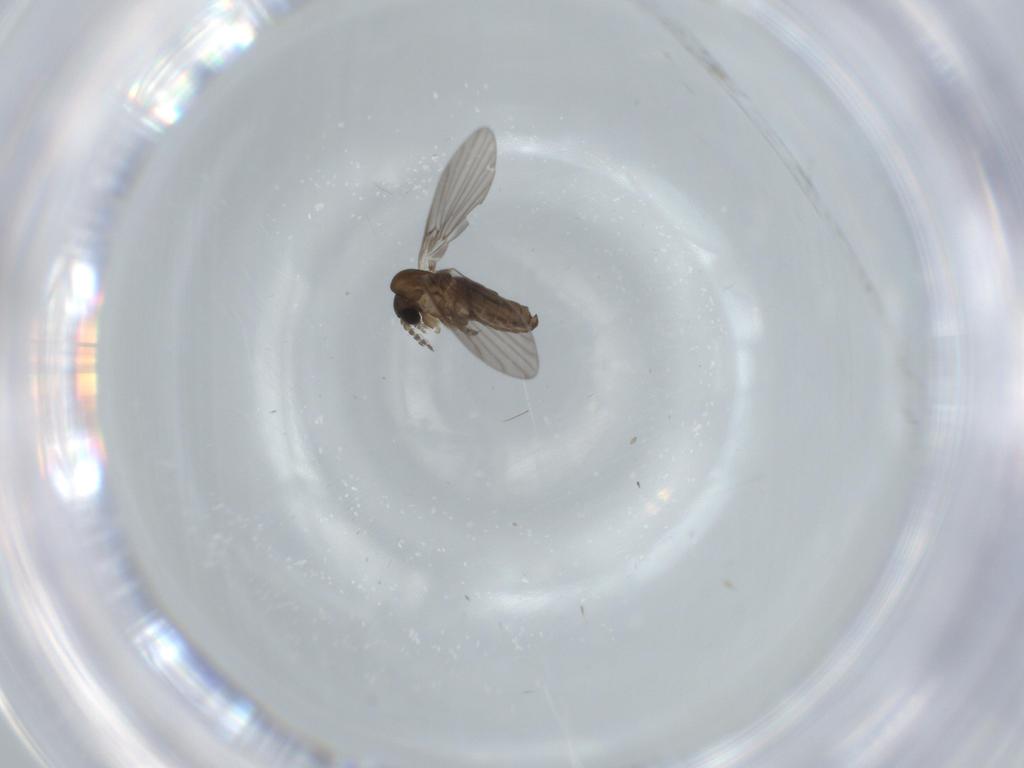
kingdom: Animalia
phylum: Arthropoda
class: Insecta
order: Diptera
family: Psychodidae
